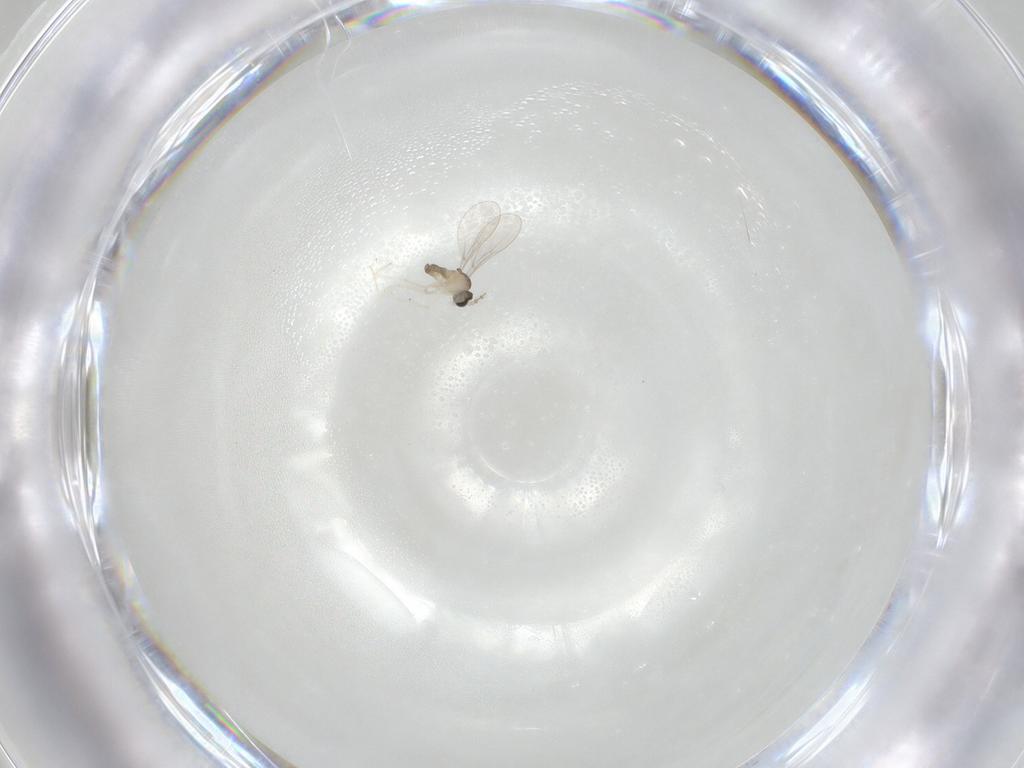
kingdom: Animalia
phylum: Arthropoda
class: Insecta
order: Diptera
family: Cecidomyiidae
